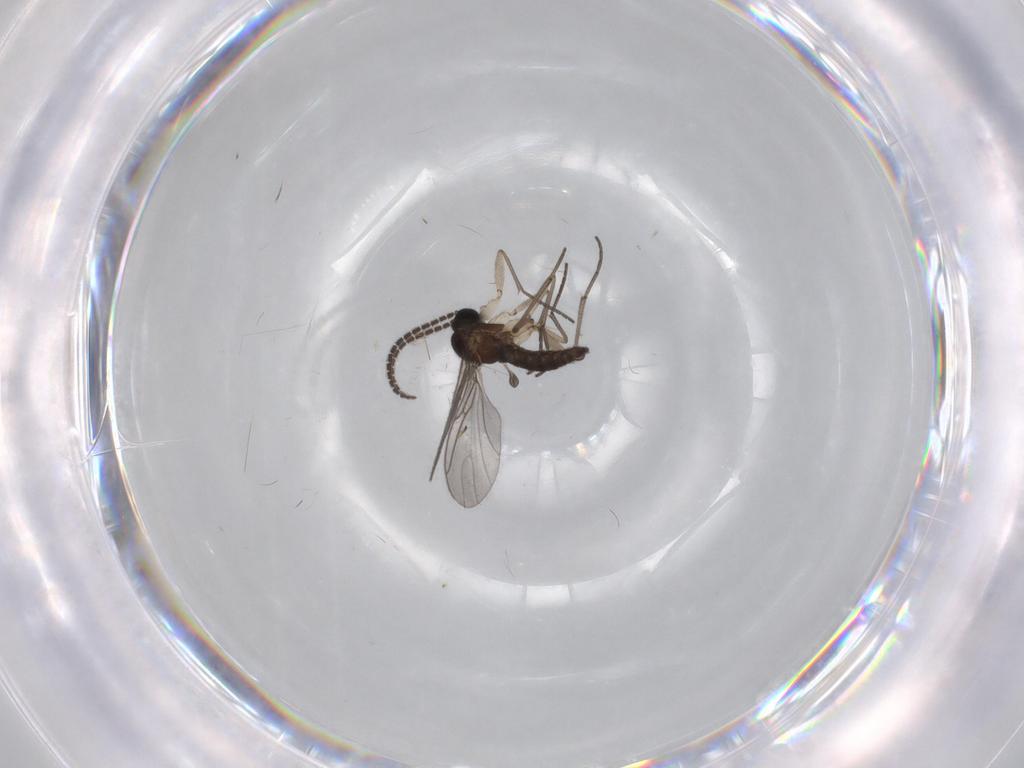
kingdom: Animalia
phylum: Arthropoda
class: Insecta
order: Diptera
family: Sciaridae
